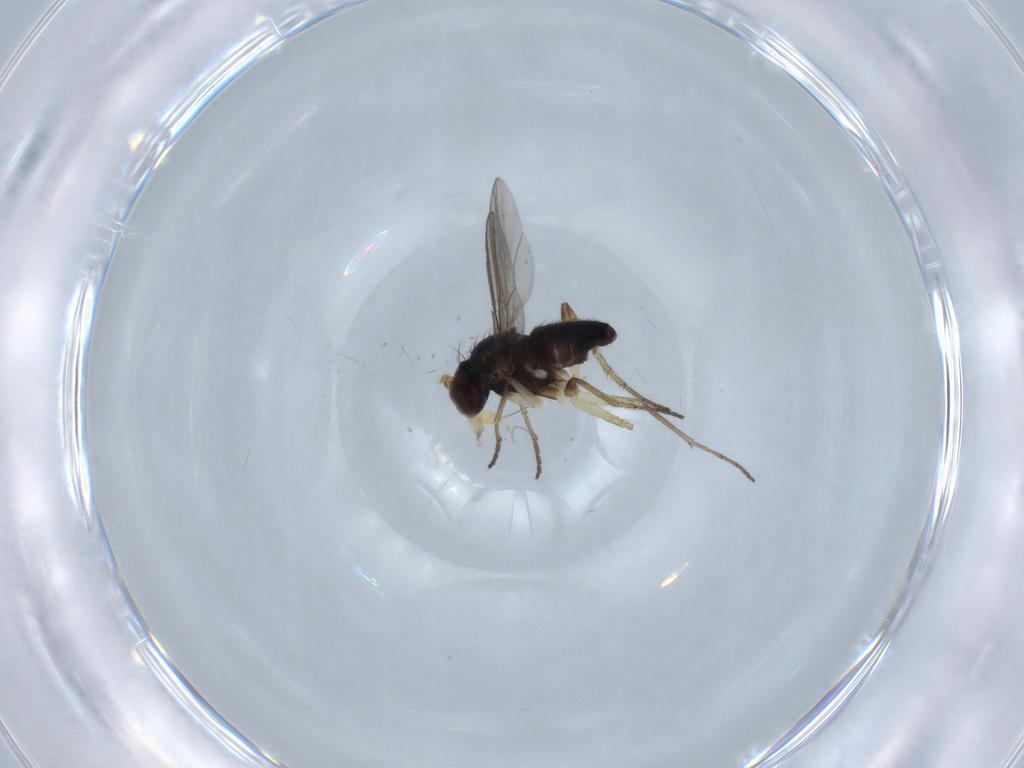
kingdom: Animalia
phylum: Arthropoda
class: Insecta
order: Diptera
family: Dolichopodidae
